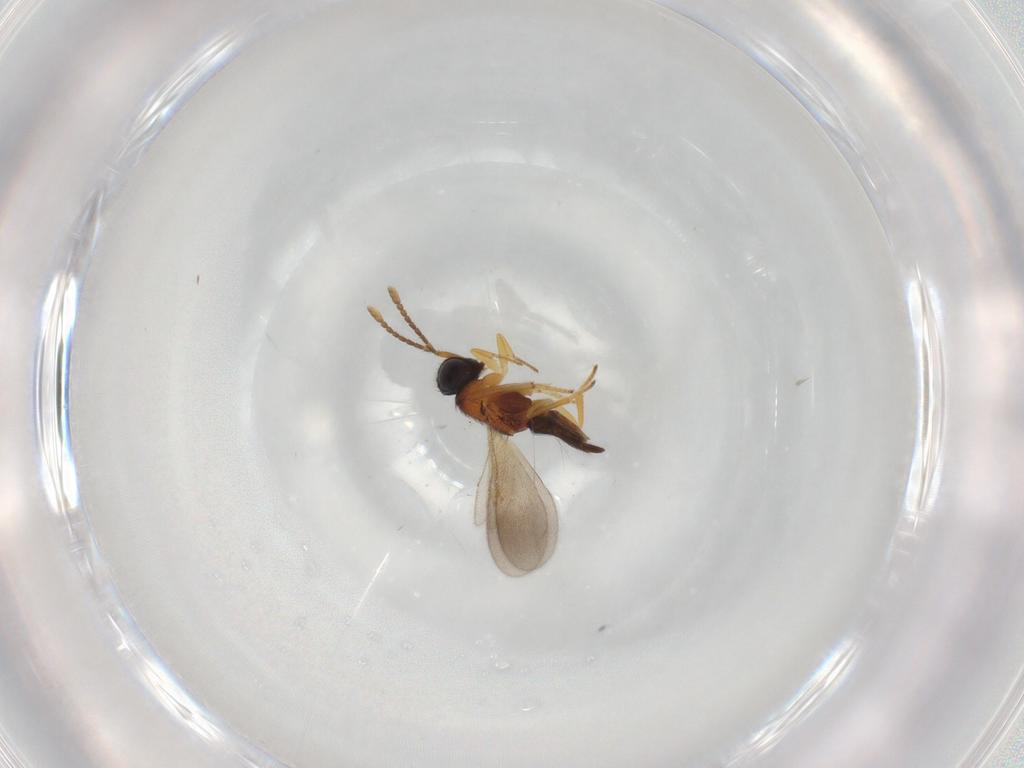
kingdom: Animalia
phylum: Arthropoda
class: Insecta
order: Hymenoptera
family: Encyrtidae
